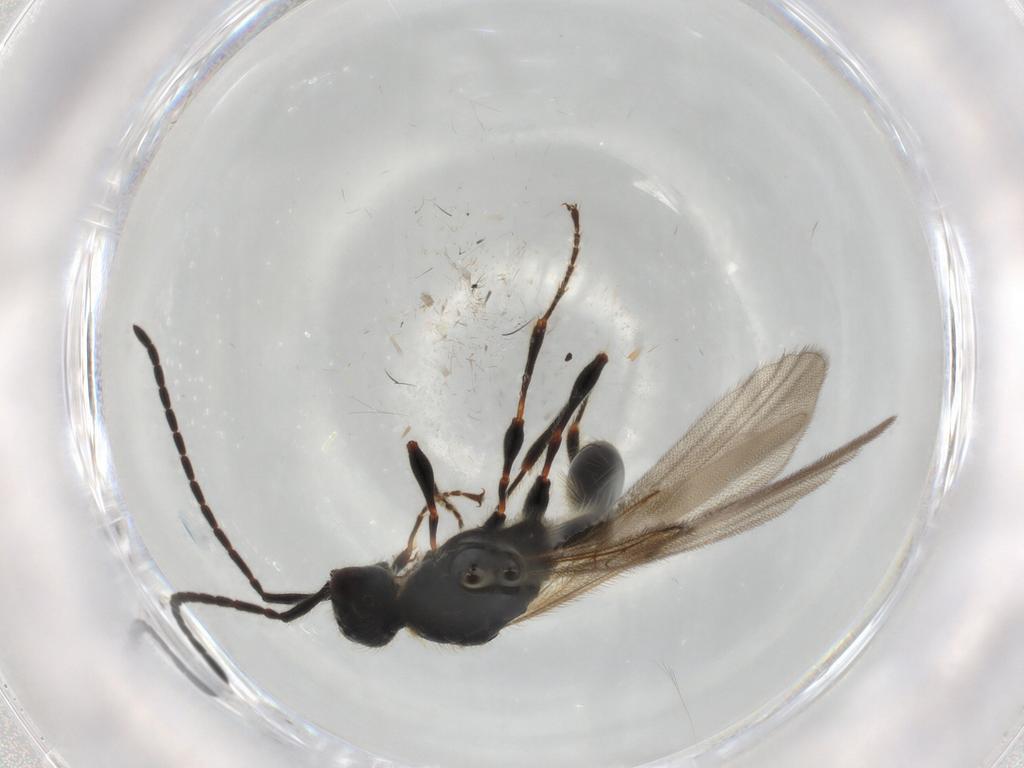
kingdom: Animalia
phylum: Arthropoda
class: Insecta
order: Hymenoptera
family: Diapriidae
